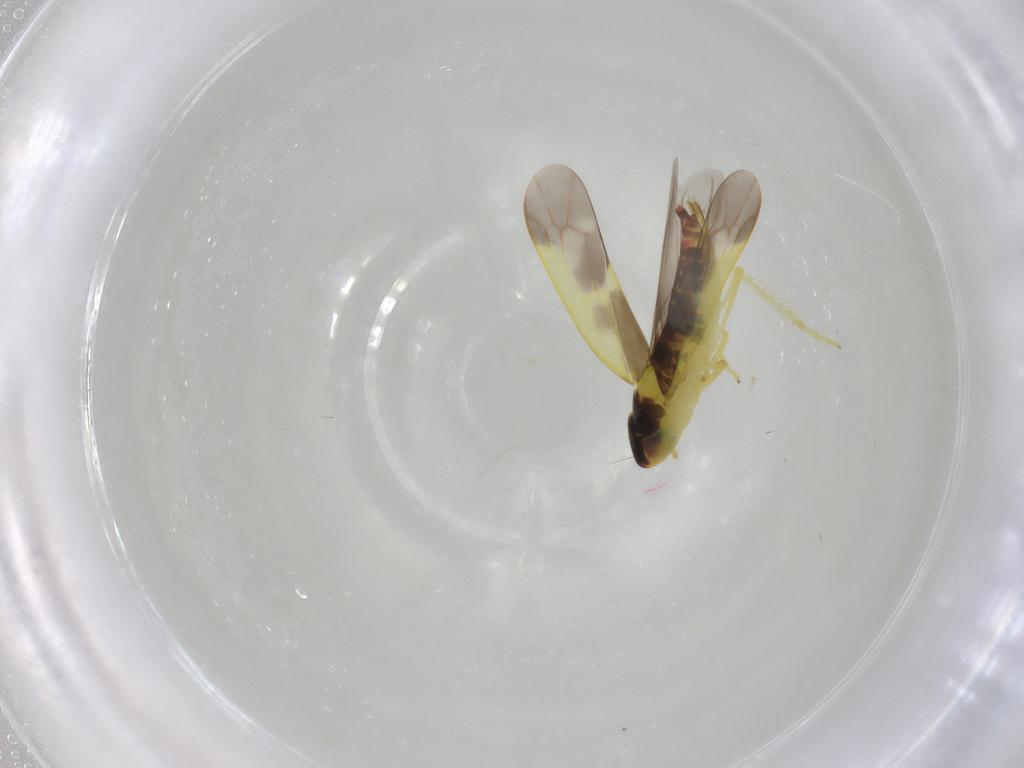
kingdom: Animalia
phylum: Arthropoda
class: Insecta
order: Hemiptera
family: Cicadellidae
